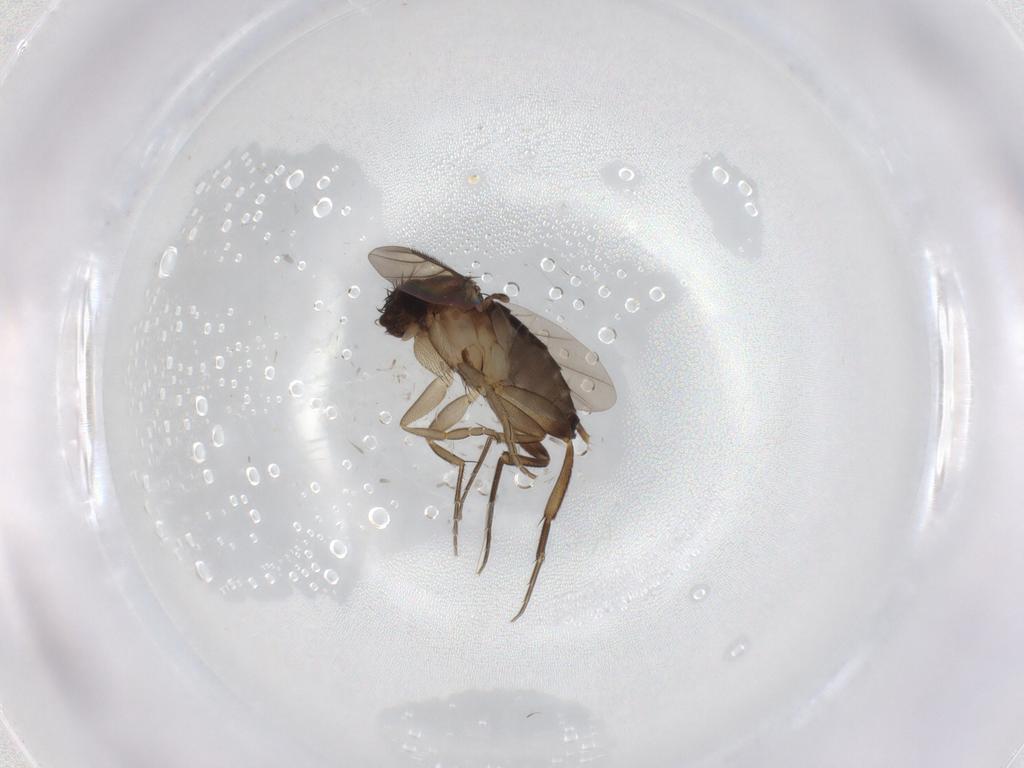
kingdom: Animalia
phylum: Arthropoda
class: Insecta
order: Diptera
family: Phoridae
